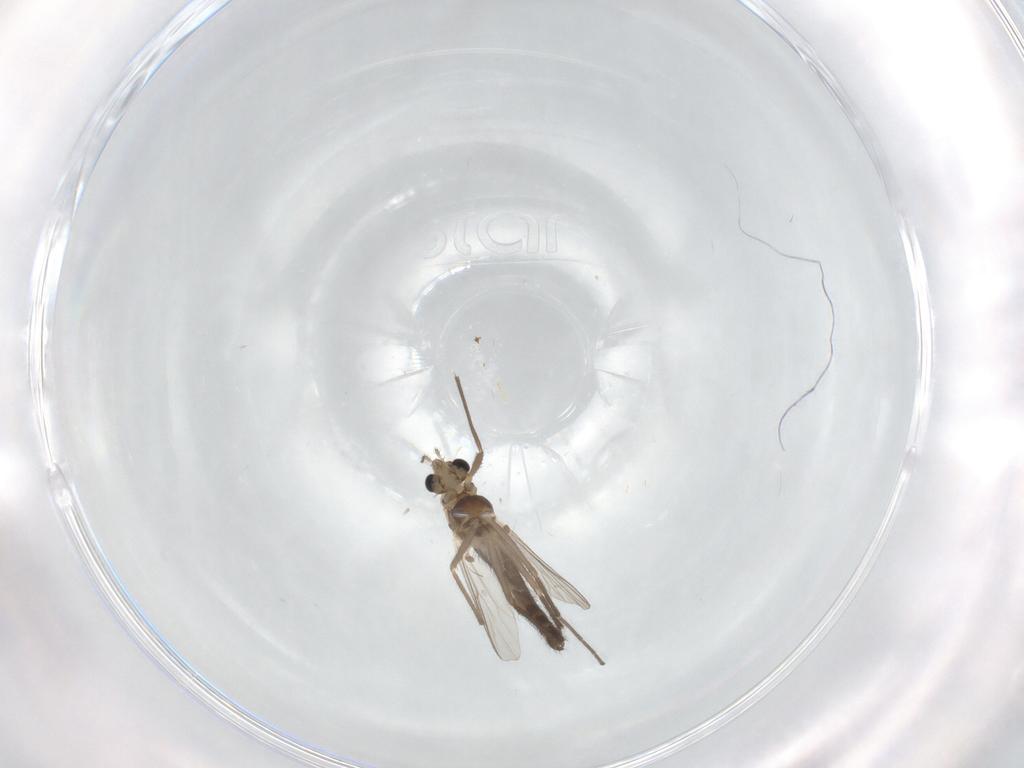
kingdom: Animalia
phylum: Arthropoda
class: Insecta
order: Diptera
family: Chironomidae
